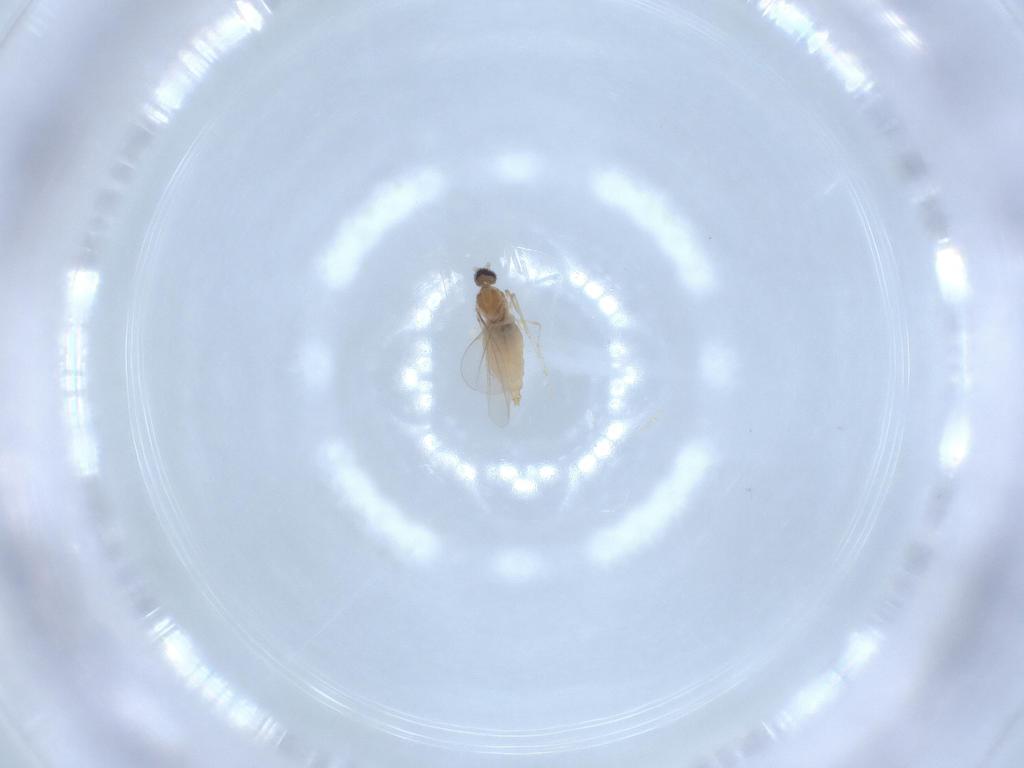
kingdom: Animalia
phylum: Arthropoda
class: Insecta
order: Diptera
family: Cecidomyiidae
